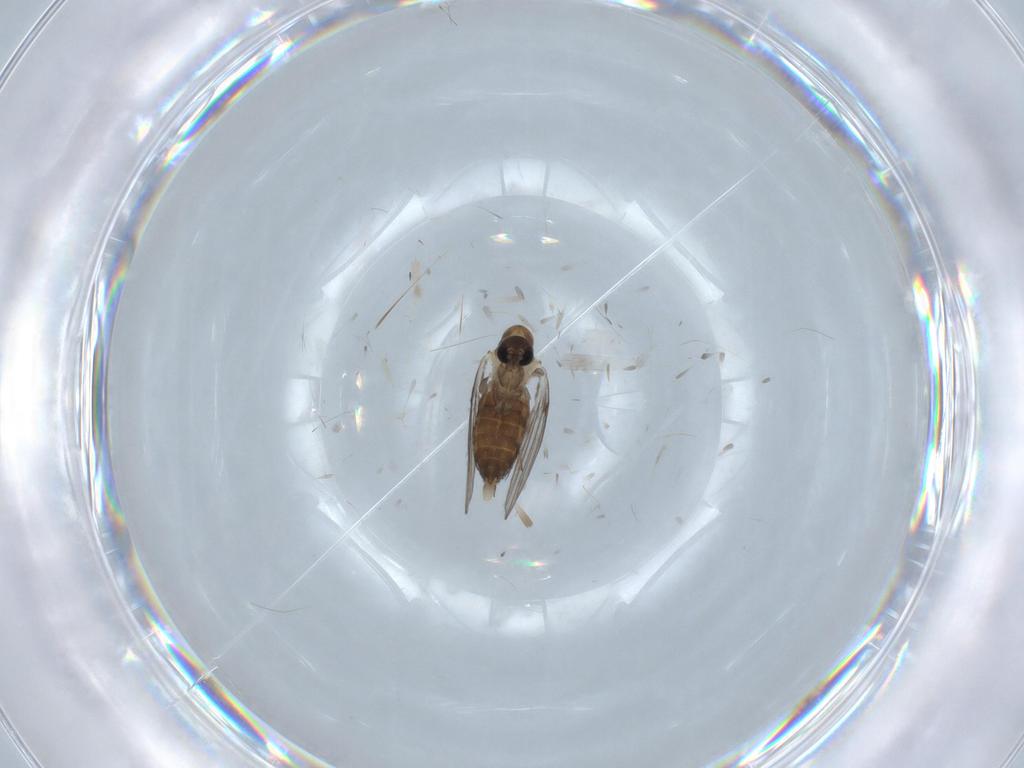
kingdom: Animalia
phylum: Arthropoda
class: Insecta
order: Diptera
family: Psychodidae
